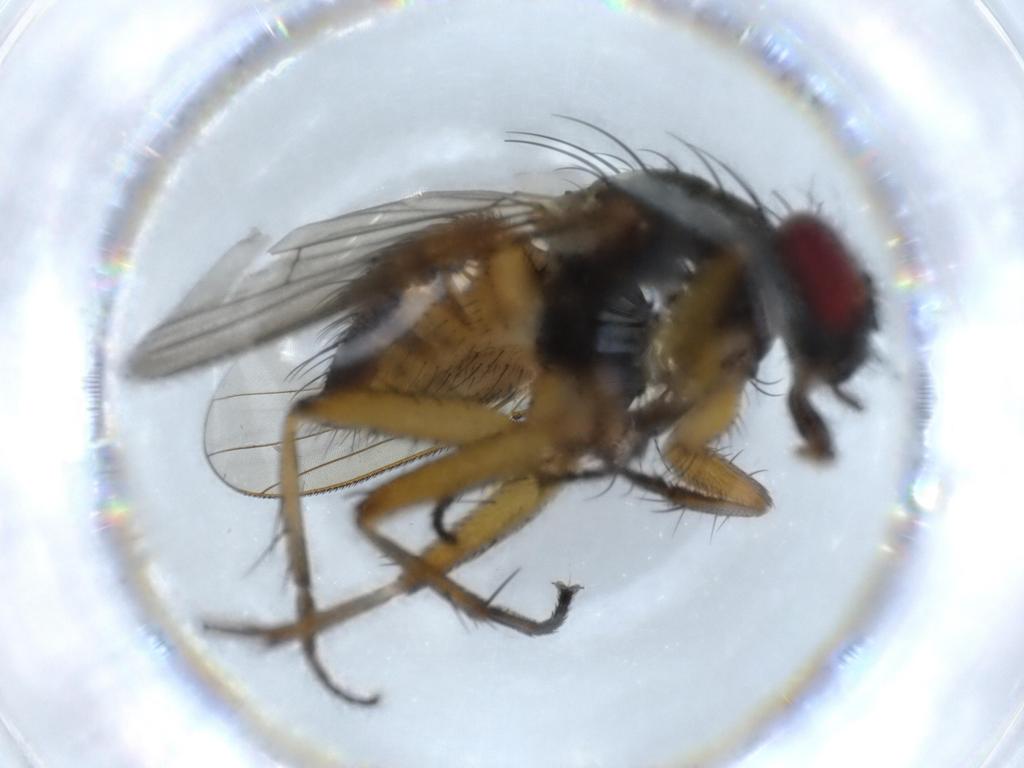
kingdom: Animalia
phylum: Arthropoda
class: Insecta
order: Diptera
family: Muscidae
